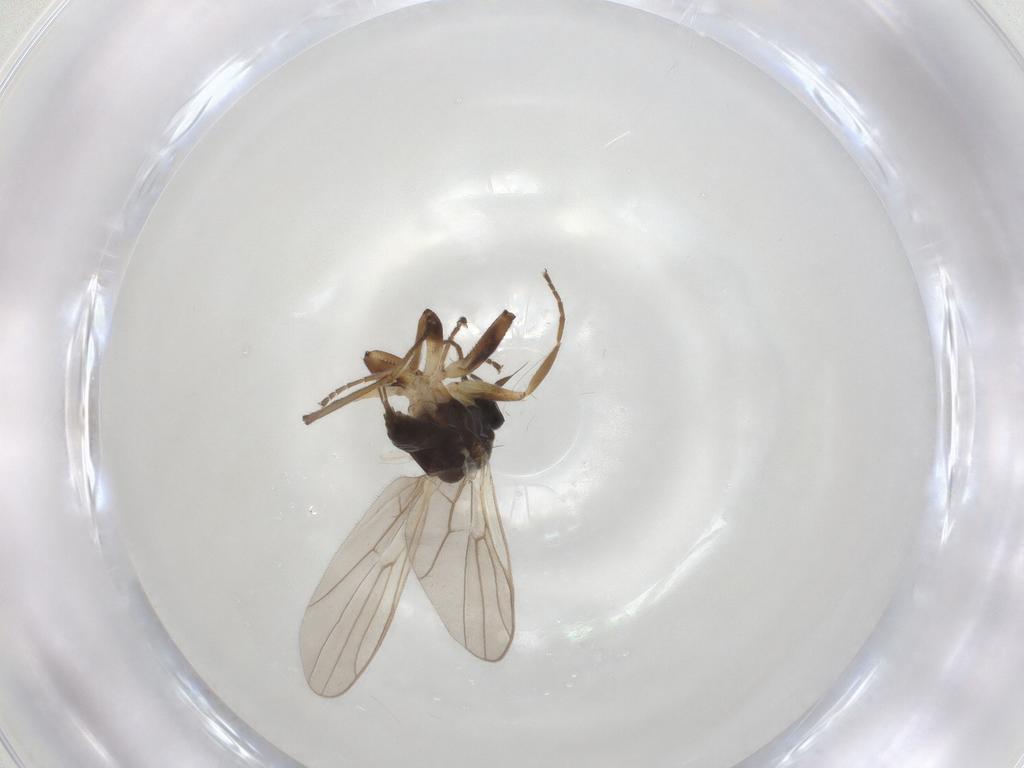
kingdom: Animalia
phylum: Arthropoda
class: Insecta
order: Diptera
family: Hybotidae
